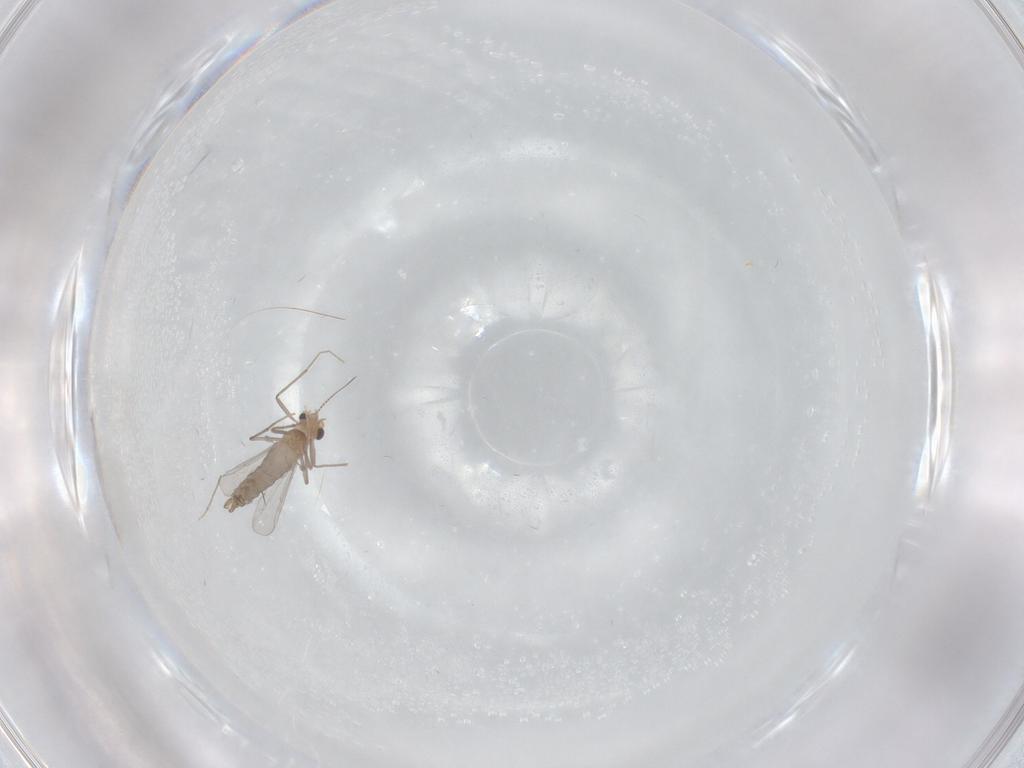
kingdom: Animalia
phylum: Arthropoda
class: Insecta
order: Diptera
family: Chironomidae
